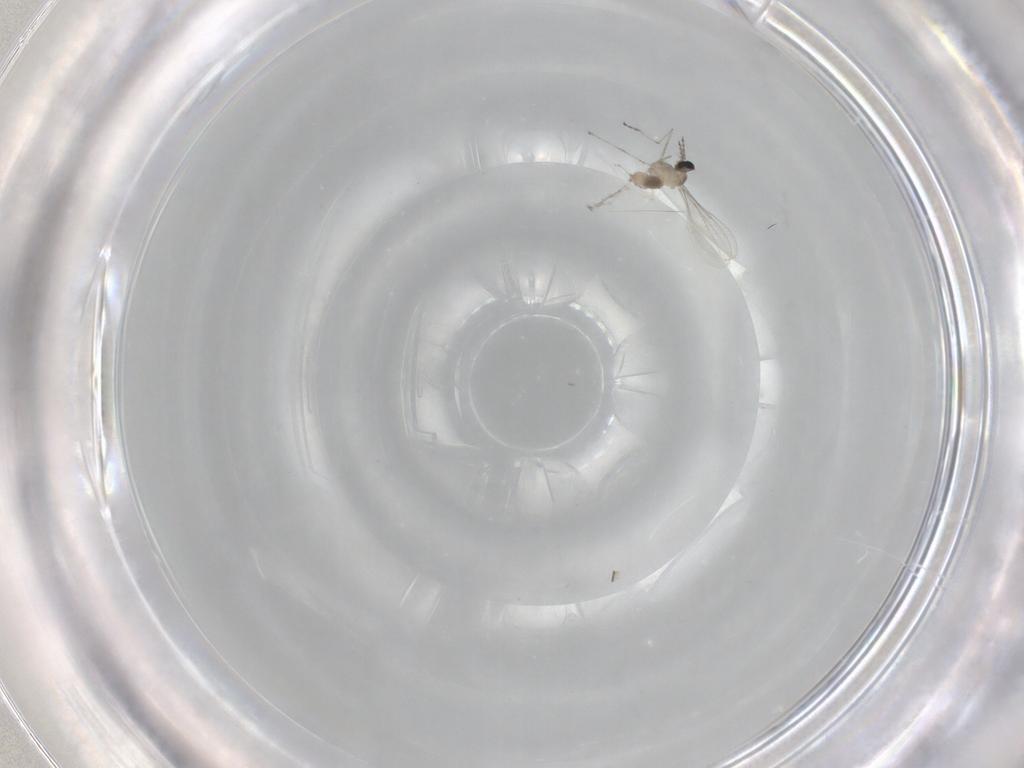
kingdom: Animalia
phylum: Arthropoda
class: Insecta
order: Diptera
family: Cecidomyiidae
